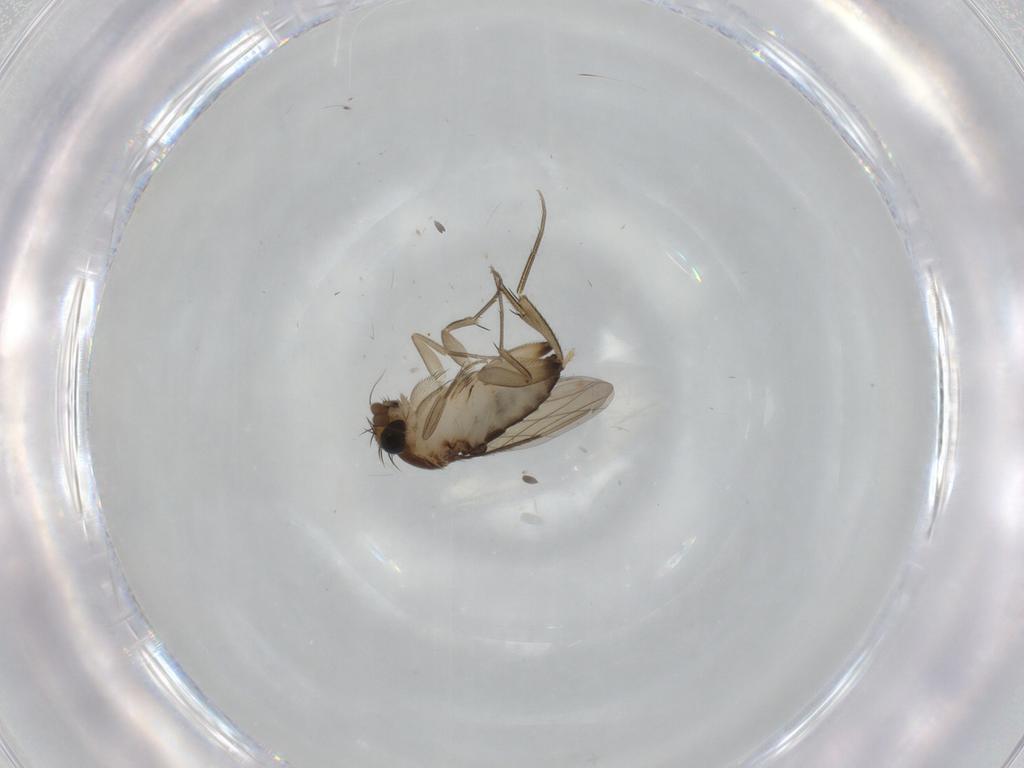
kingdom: Animalia
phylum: Arthropoda
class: Insecta
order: Diptera
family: Phoridae
